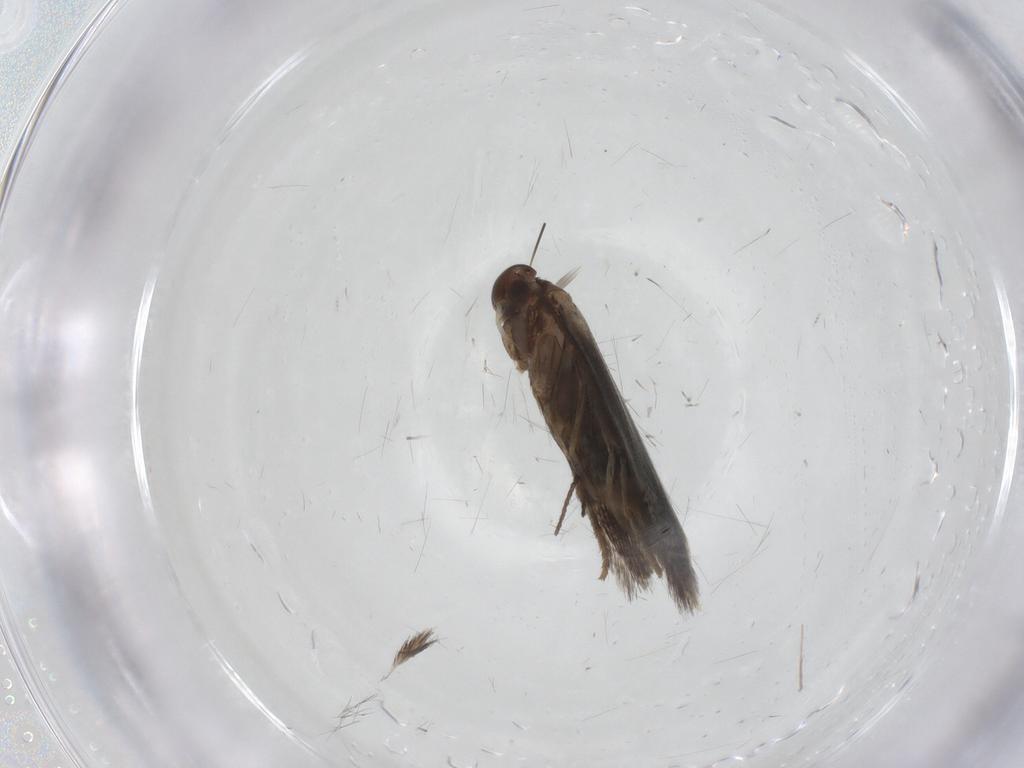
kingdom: Animalia
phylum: Arthropoda
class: Insecta
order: Lepidoptera
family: Elachistidae
